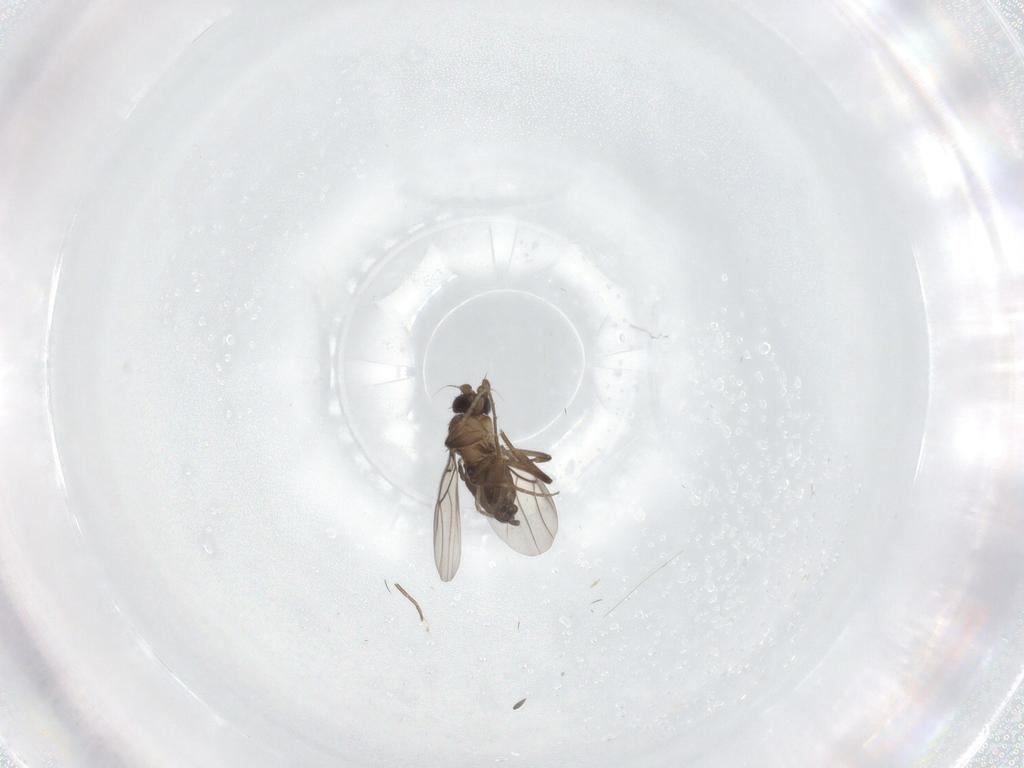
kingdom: Animalia
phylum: Arthropoda
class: Insecta
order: Diptera
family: Phoridae
